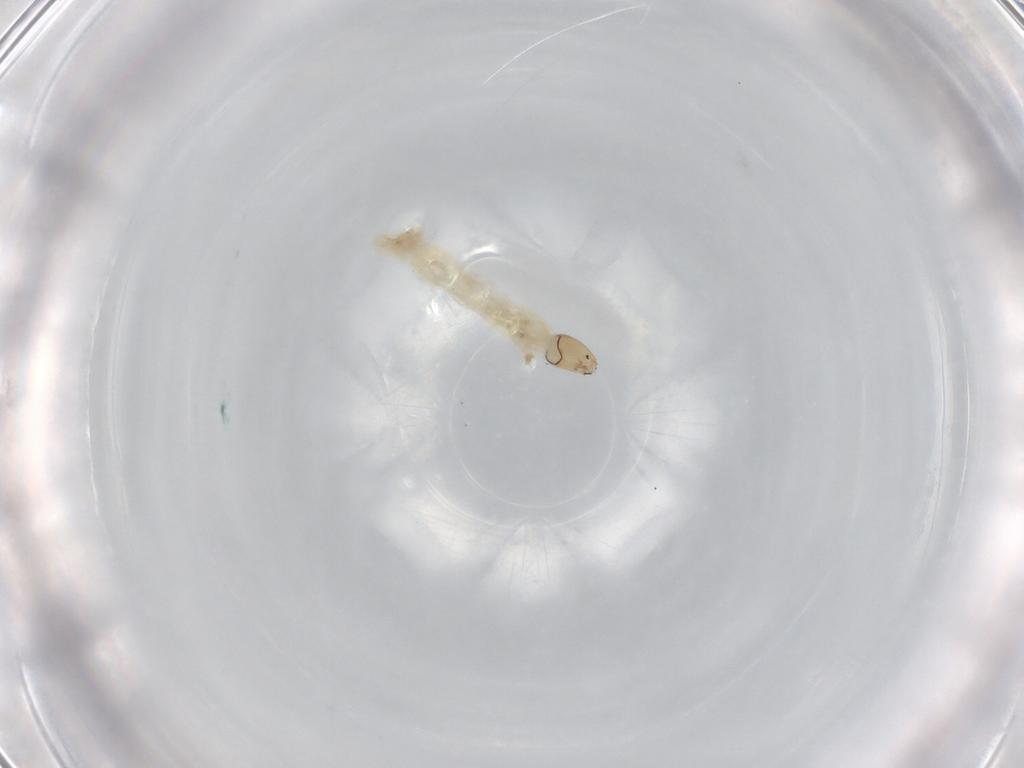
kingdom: Animalia
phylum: Arthropoda
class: Insecta
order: Diptera
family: Chironomidae
